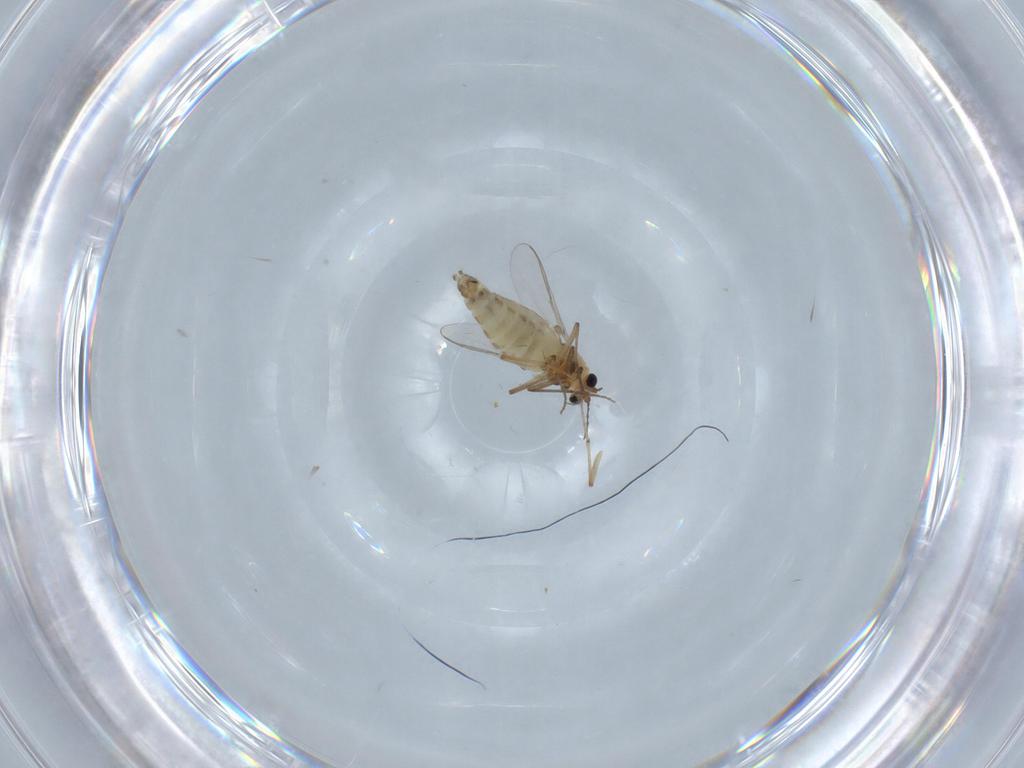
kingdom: Animalia
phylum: Arthropoda
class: Insecta
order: Diptera
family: Chironomidae
